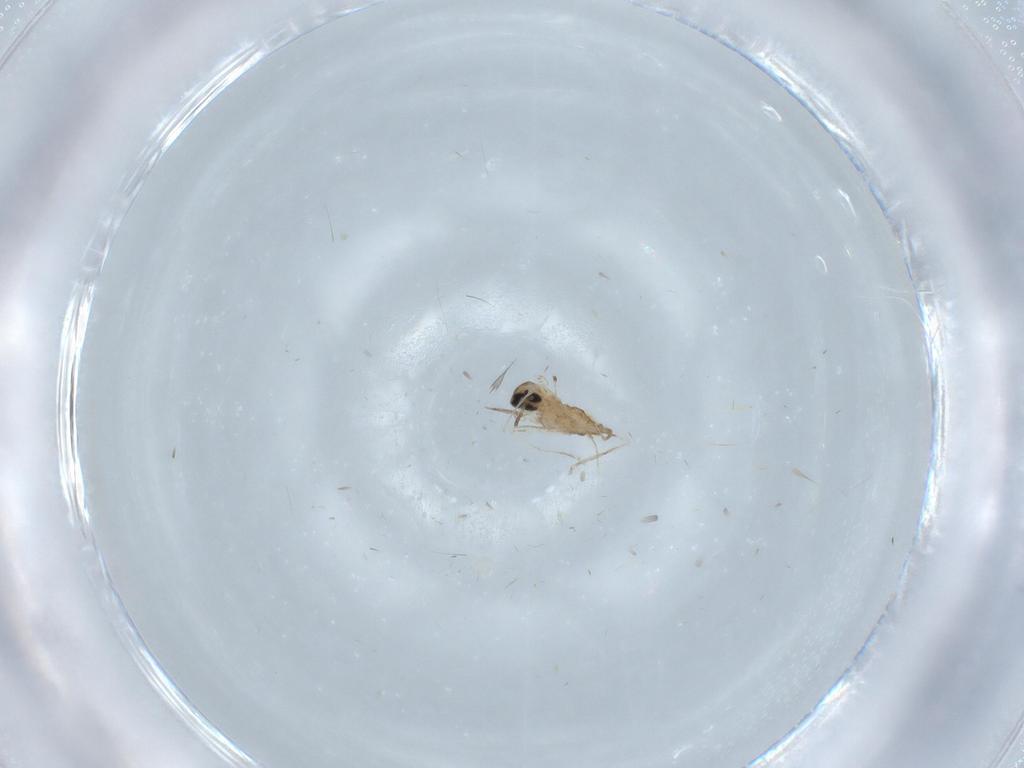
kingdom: Animalia
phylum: Arthropoda
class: Insecta
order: Diptera
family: Cecidomyiidae
